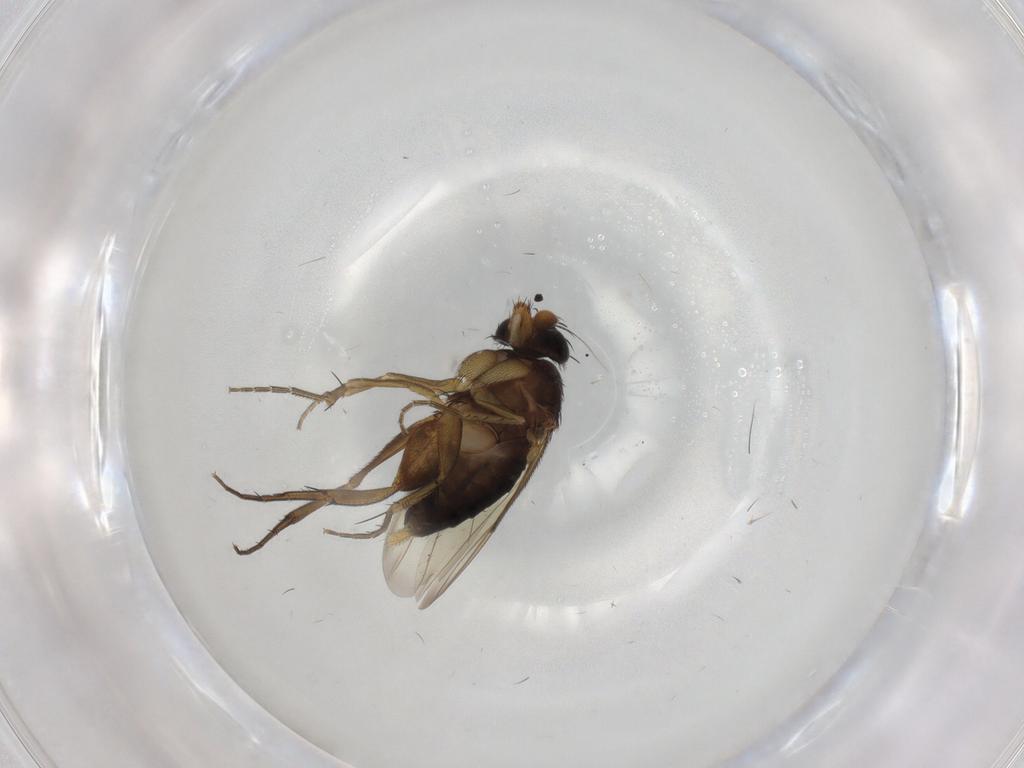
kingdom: Animalia
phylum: Arthropoda
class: Insecta
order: Diptera
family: Phoridae
